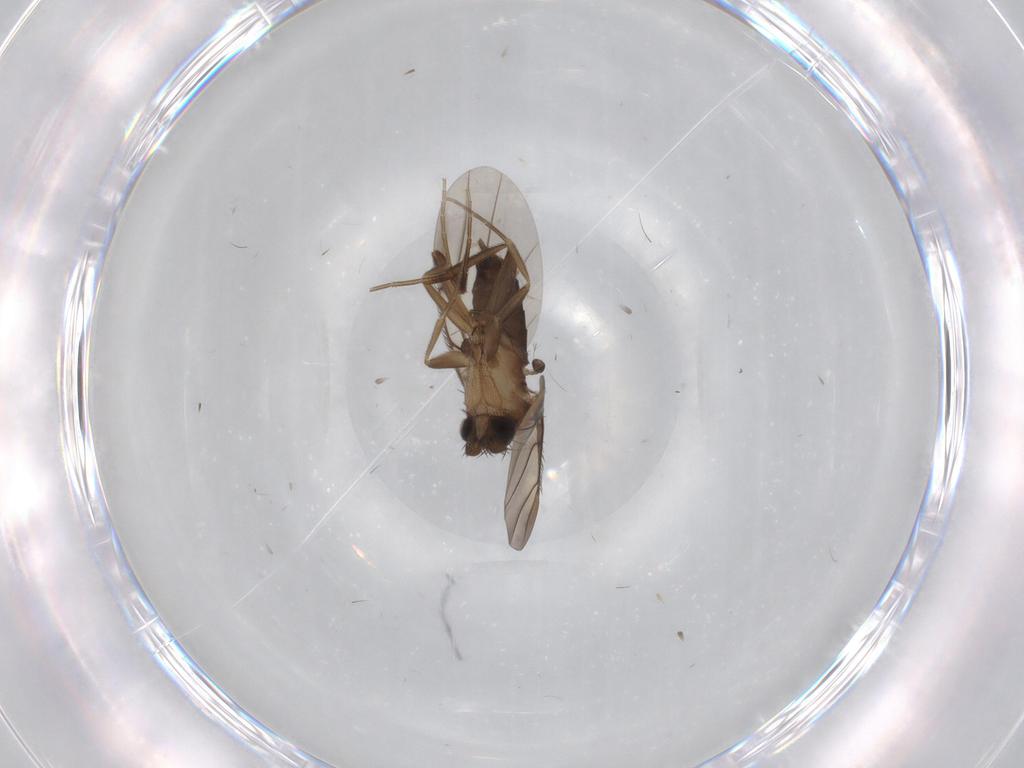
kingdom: Animalia
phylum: Arthropoda
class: Insecta
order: Diptera
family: Phoridae
